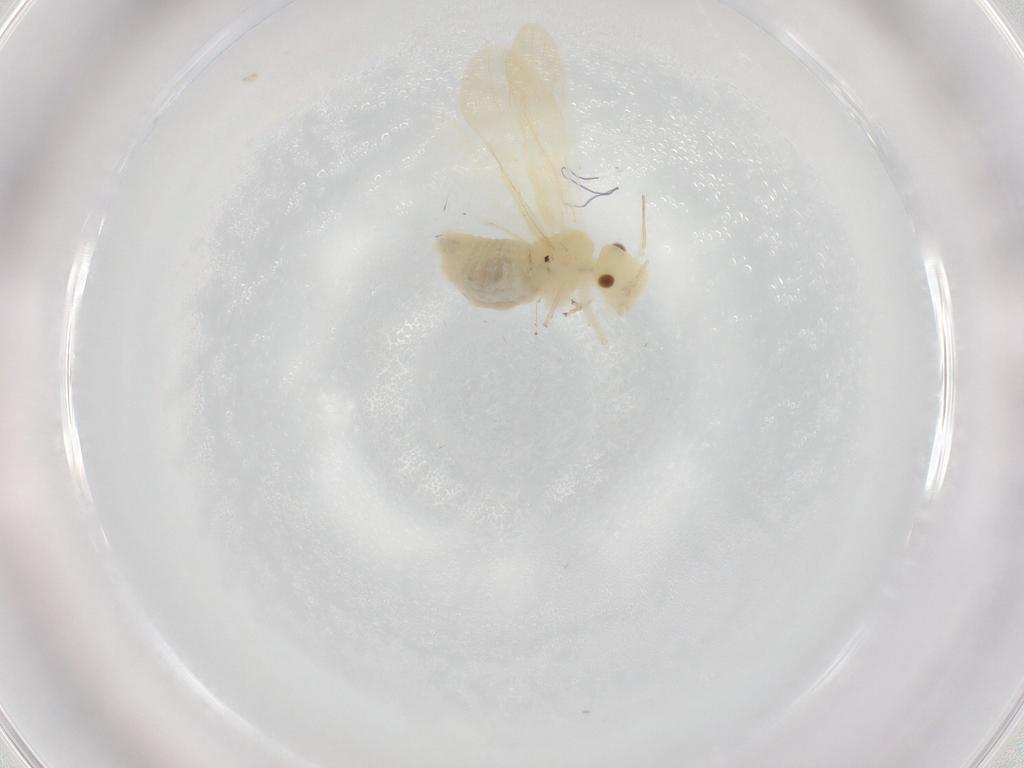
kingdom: Animalia
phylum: Arthropoda
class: Insecta
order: Psocodea
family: Caeciliusidae
